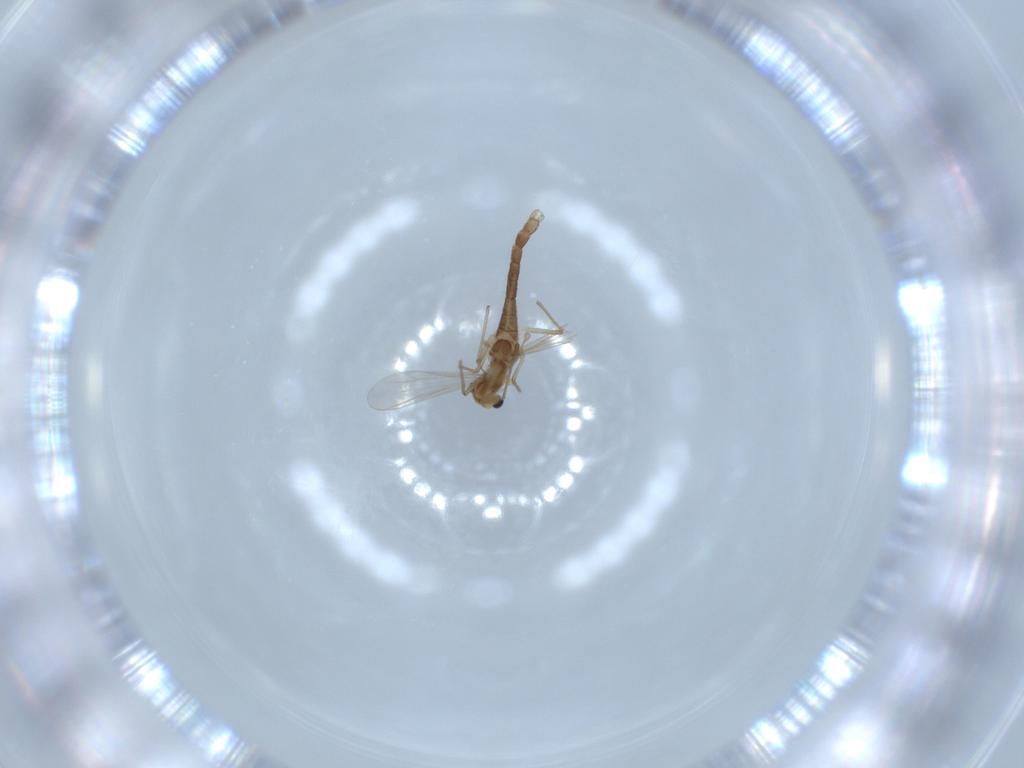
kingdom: Animalia
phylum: Arthropoda
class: Insecta
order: Diptera
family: Chironomidae
